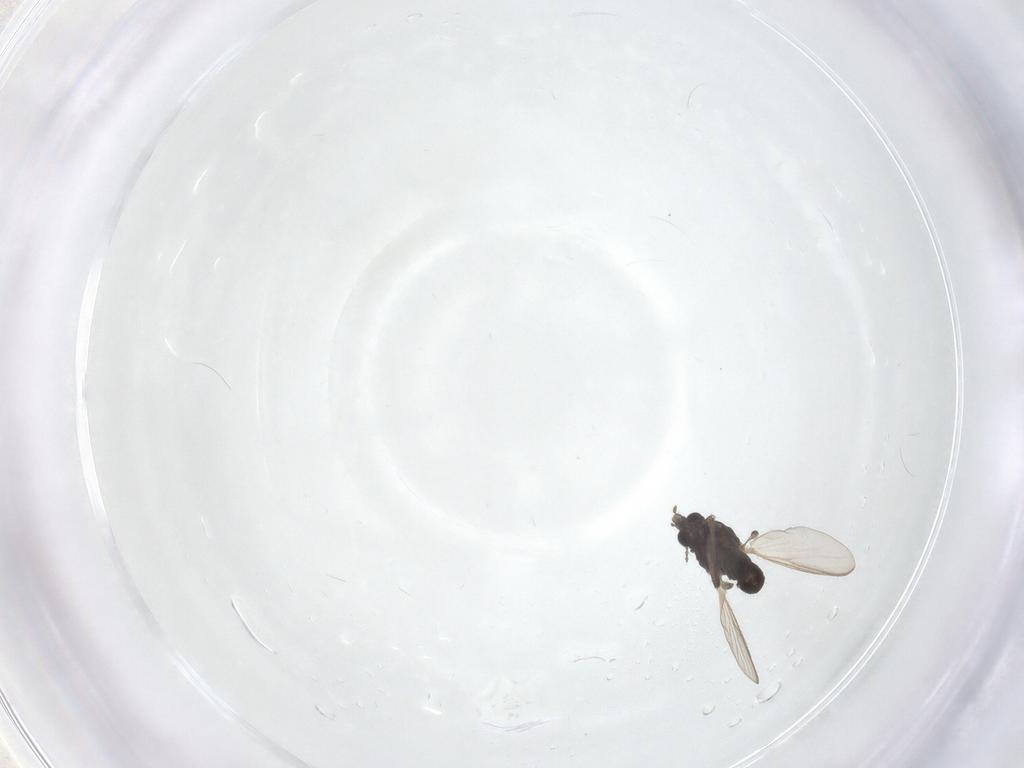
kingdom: Animalia
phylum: Arthropoda
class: Insecta
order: Diptera
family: Chironomidae
